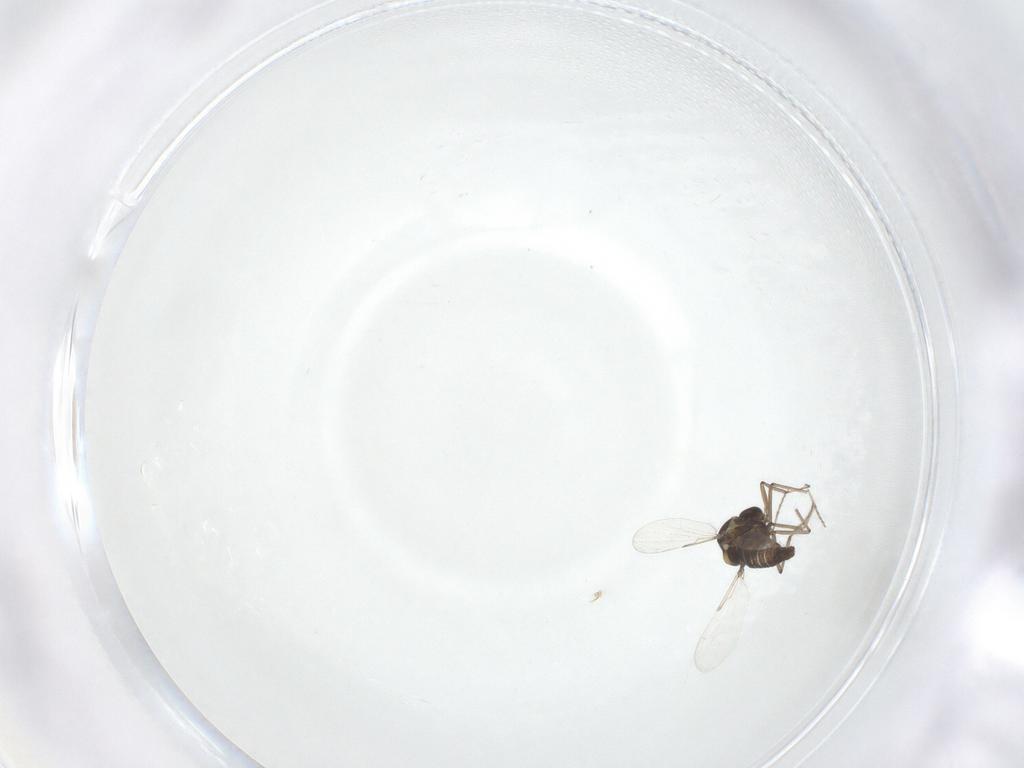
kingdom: Animalia
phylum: Arthropoda
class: Insecta
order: Diptera
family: Ceratopogonidae
